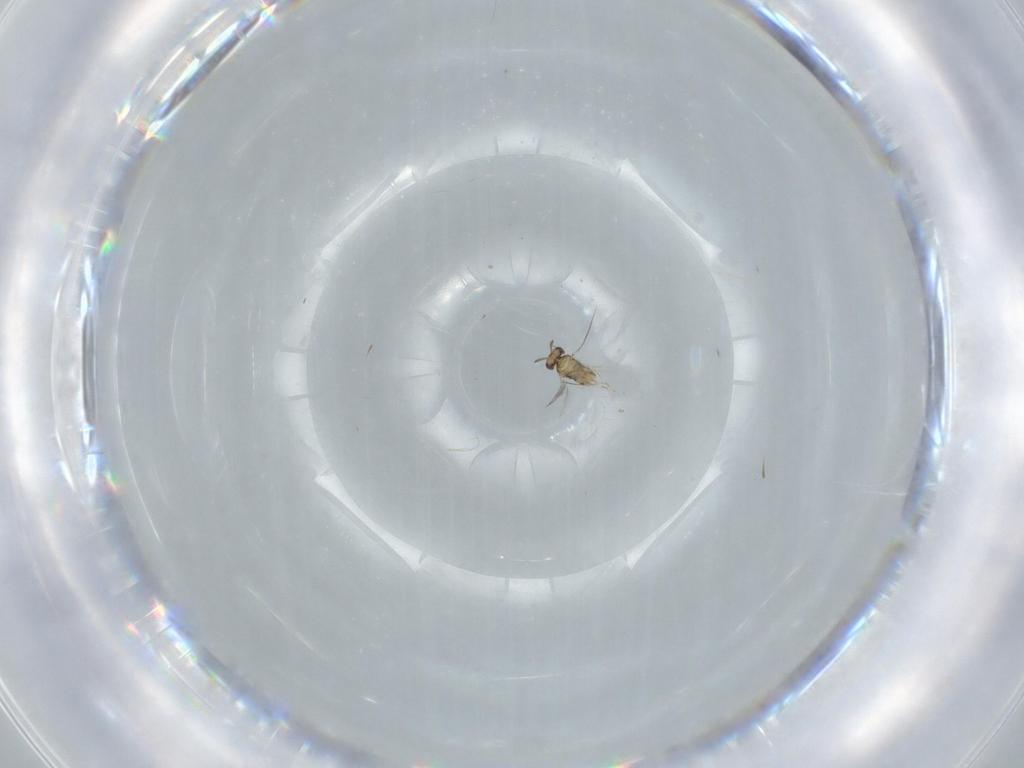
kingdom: Animalia
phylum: Arthropoda
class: Insecta
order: Hymenoptera
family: Aphelinidae
